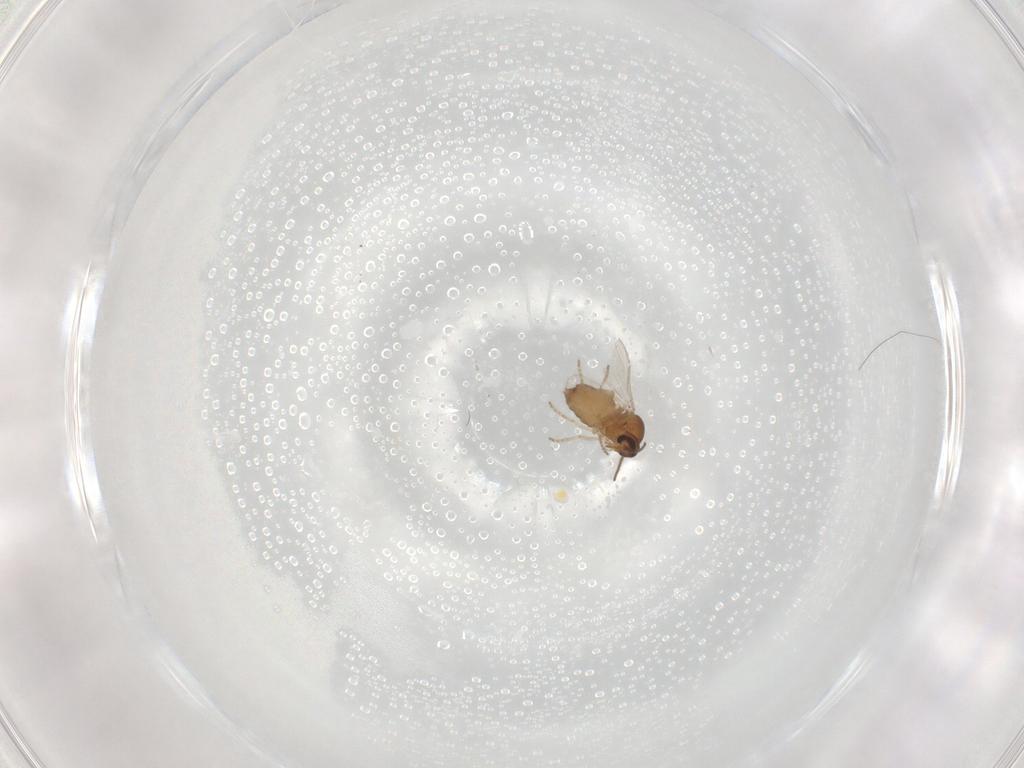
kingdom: Animalia
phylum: Arthropoda
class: Insecta
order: Diptera
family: Ceratopogonidae
